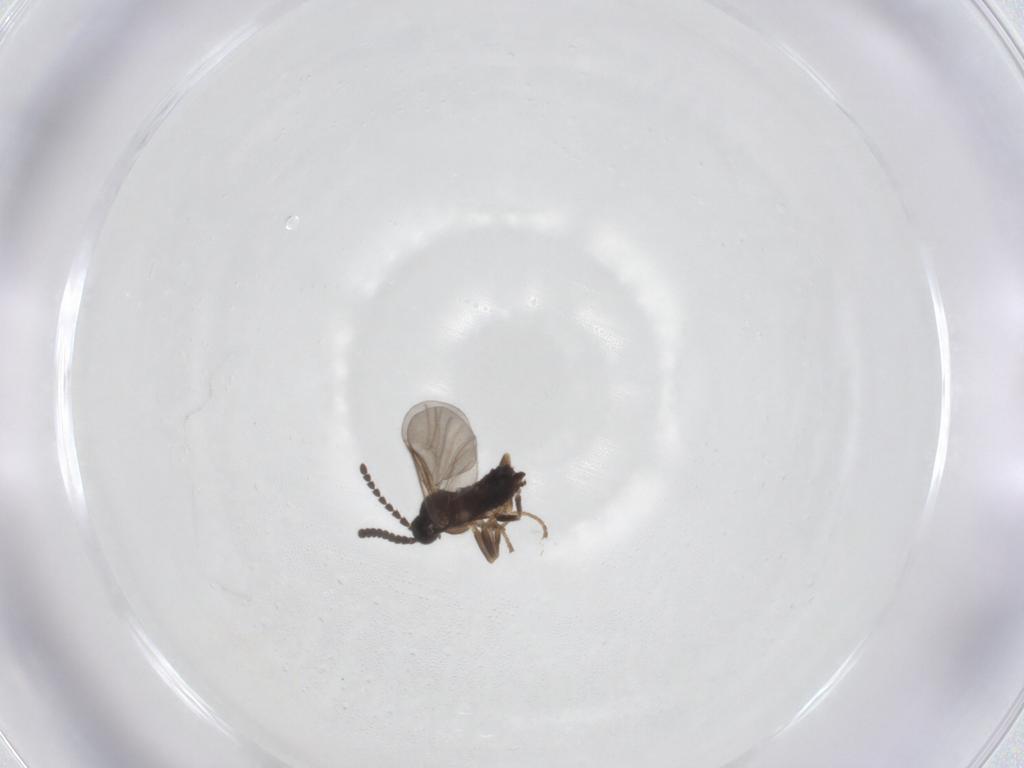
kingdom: Animalia
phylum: Arthropoda
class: Insecta
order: Diptera
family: Scatopsidae
